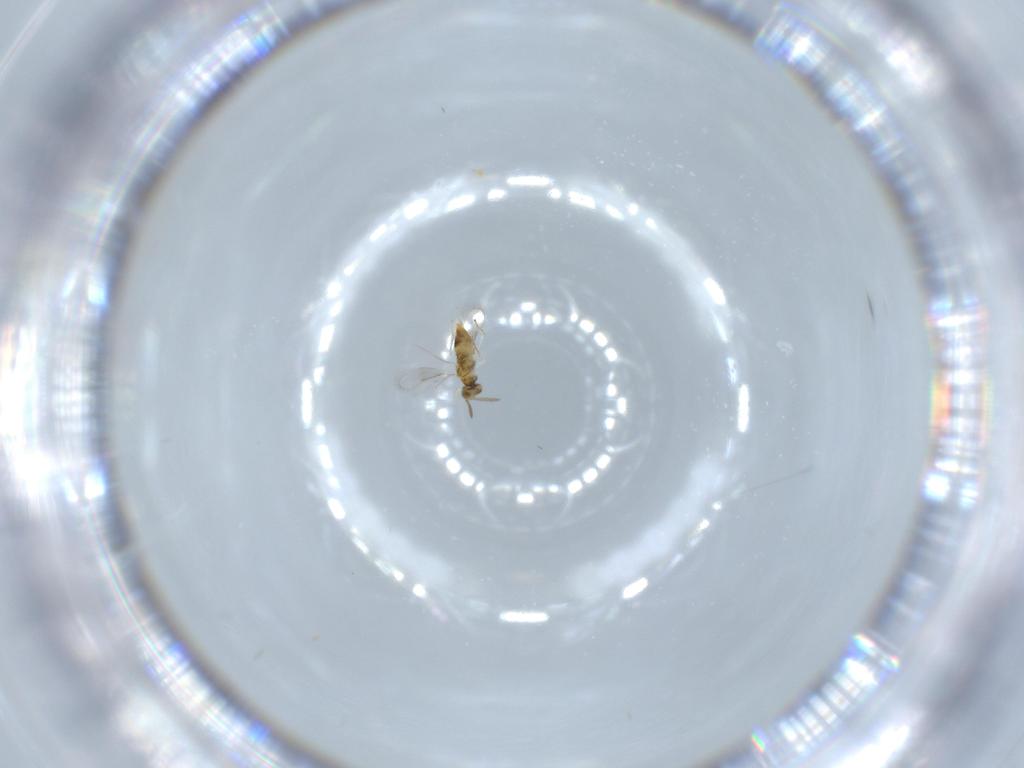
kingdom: Animalia
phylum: Arthropoda
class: Insecta
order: Hymenoptera
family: Aphelinidae
